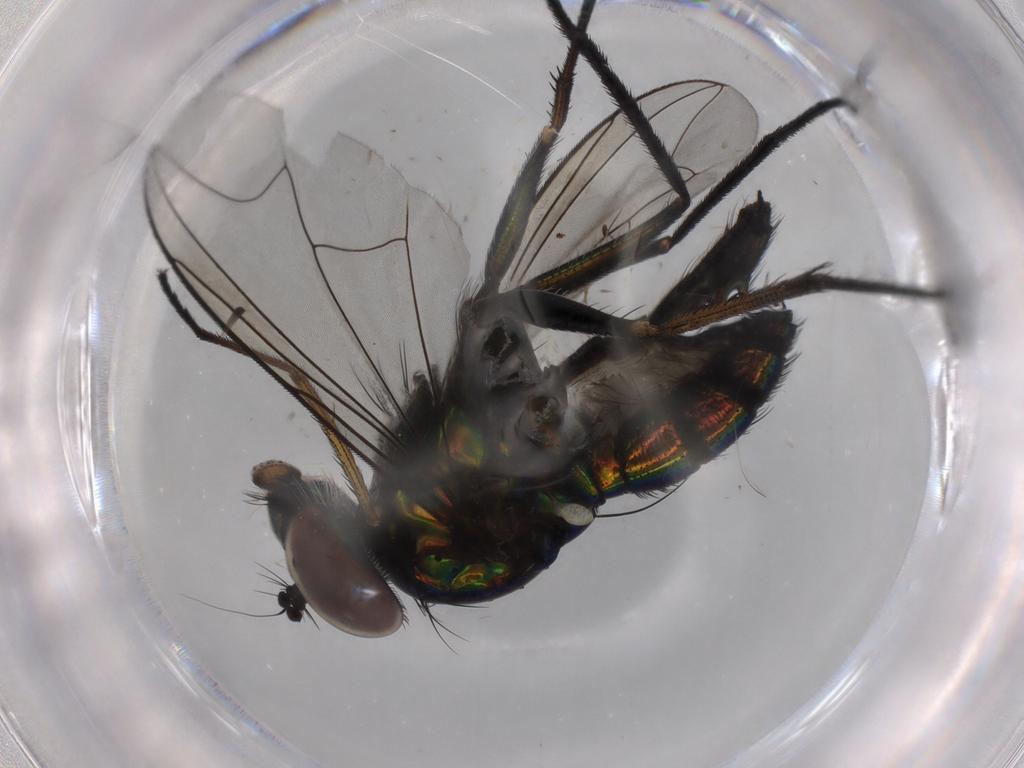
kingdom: Animalia
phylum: Arthropoda
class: Insecta
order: Diptera
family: Dolichopodidae
